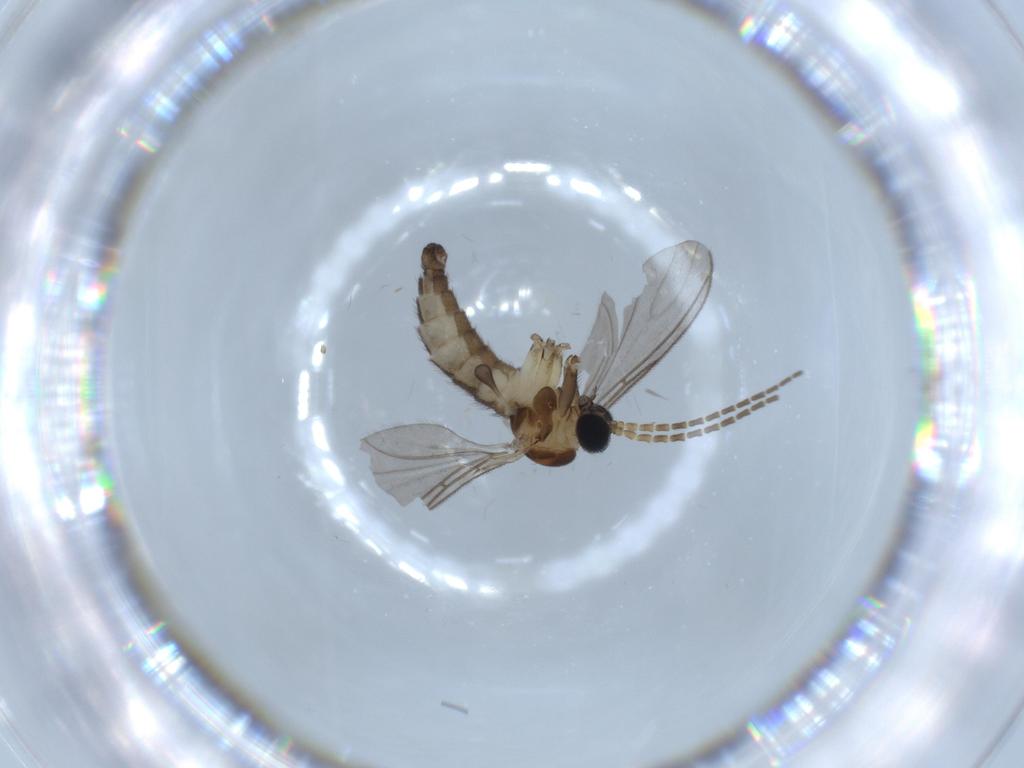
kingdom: Animalia
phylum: Arthropoda
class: Insecta
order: Diptera
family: Sciaridae
